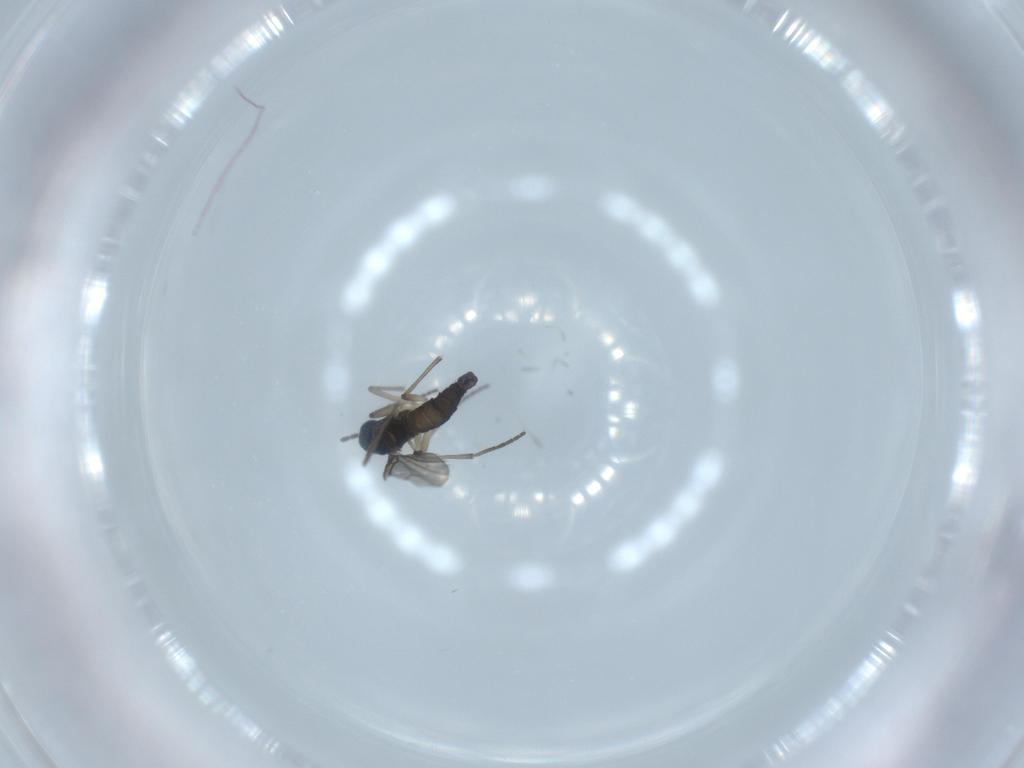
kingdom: Animalia
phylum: Arthropoda
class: Insecta
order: Diptera
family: Sciaridae
